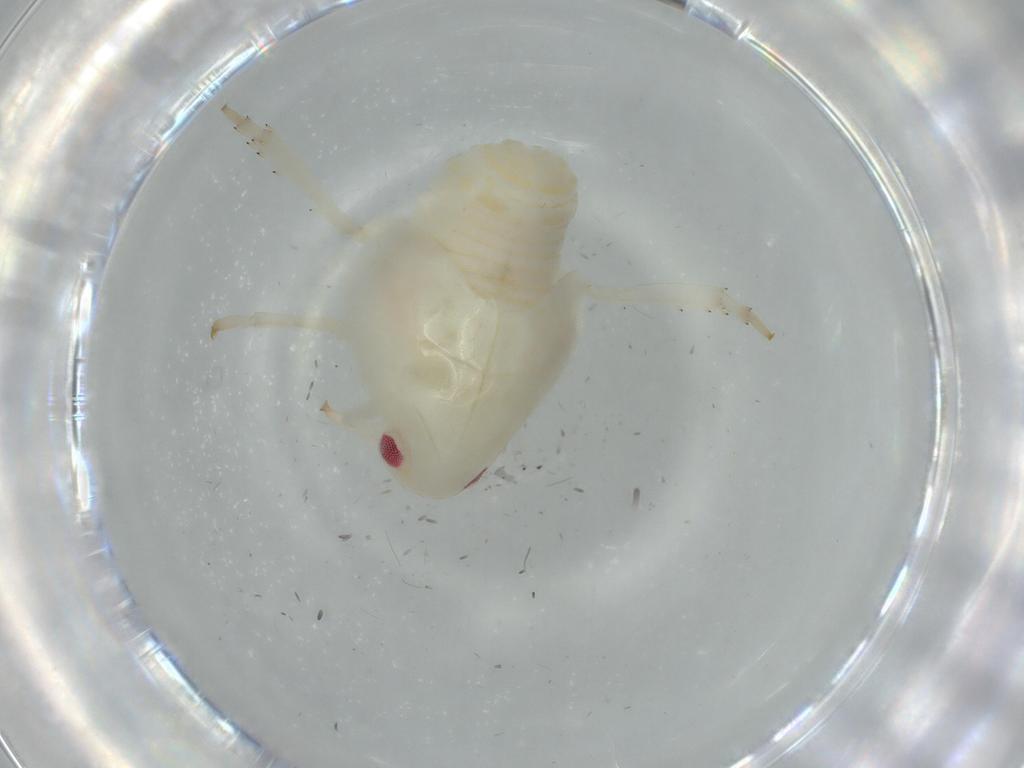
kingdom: Animalia
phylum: Arthropoda
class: Insecta
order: Hemiptera
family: Flatidae
